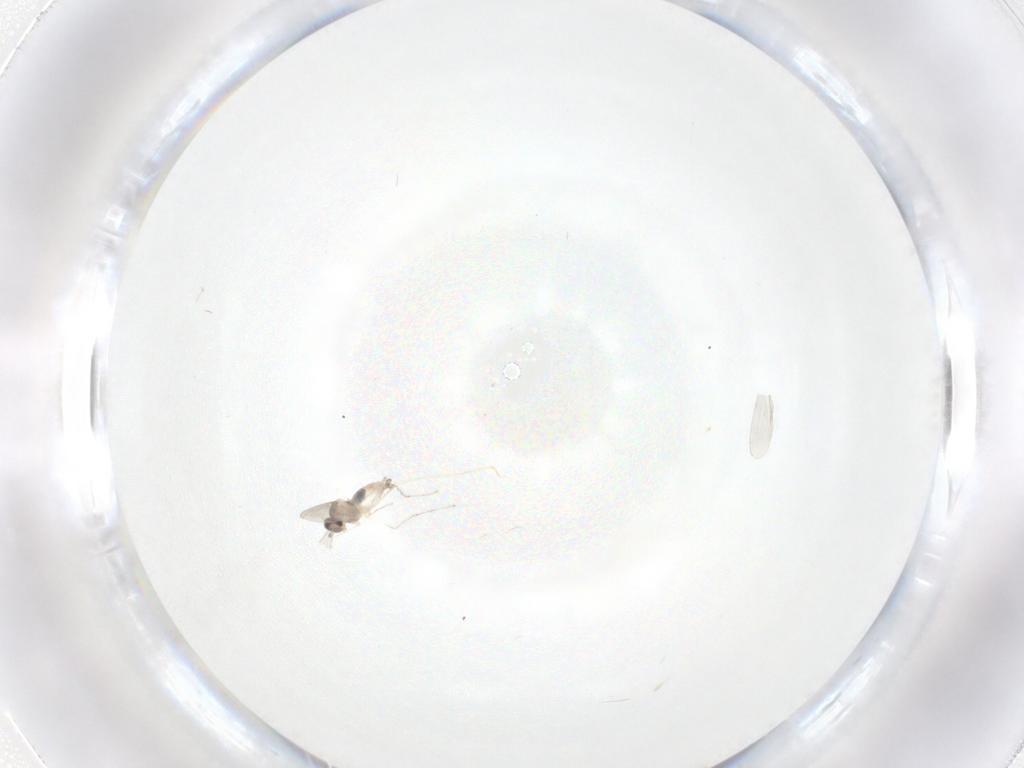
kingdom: Animalia
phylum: Arthropoda
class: Insecta
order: Diptera
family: Cecidomyiidae
